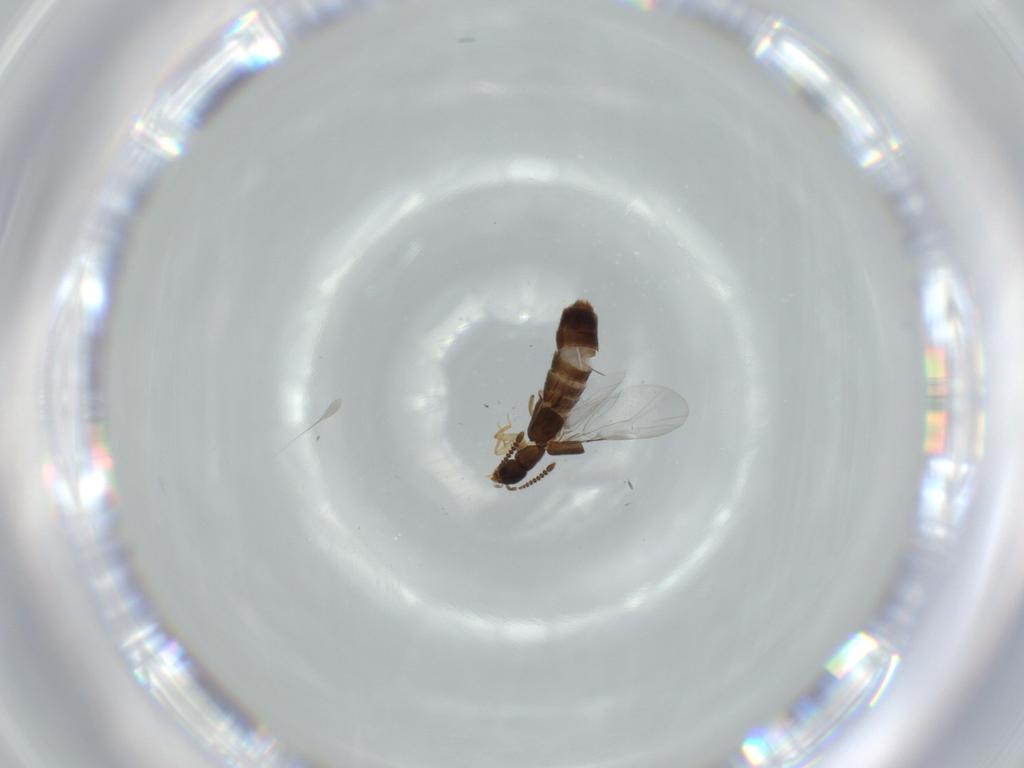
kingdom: Animalia
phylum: Arthropoda
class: Insecta
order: Coleoptera
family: Staphylinidae
